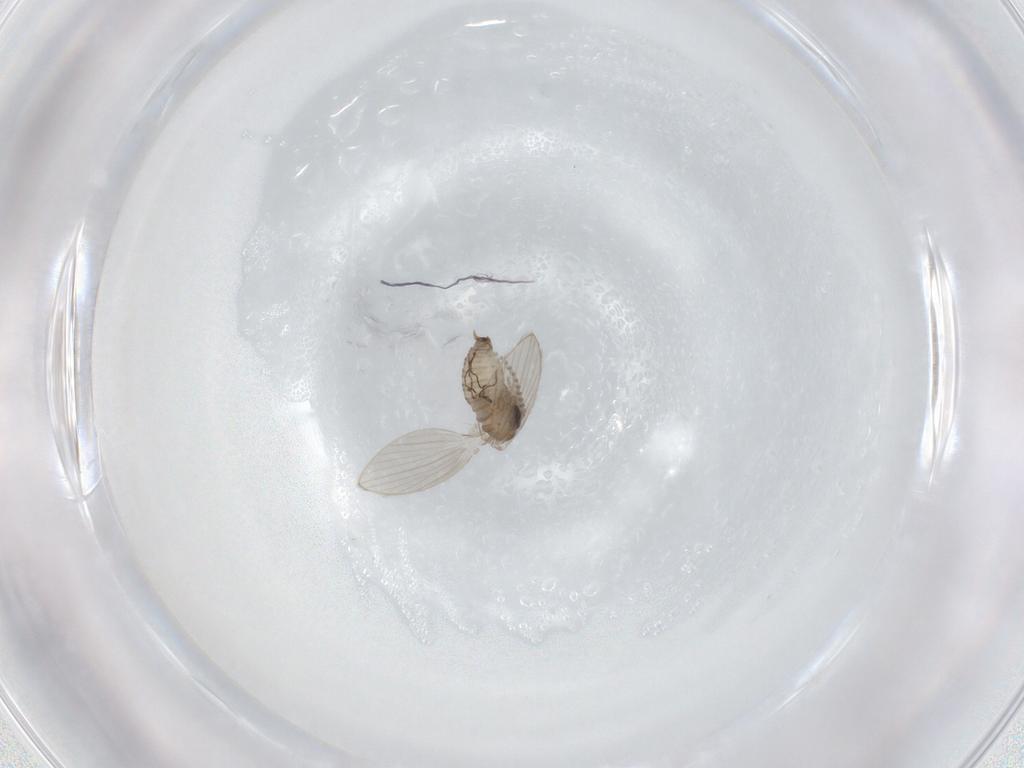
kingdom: Animalia
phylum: Arthropoda
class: Insecta
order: Diptera
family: Psychodidae
